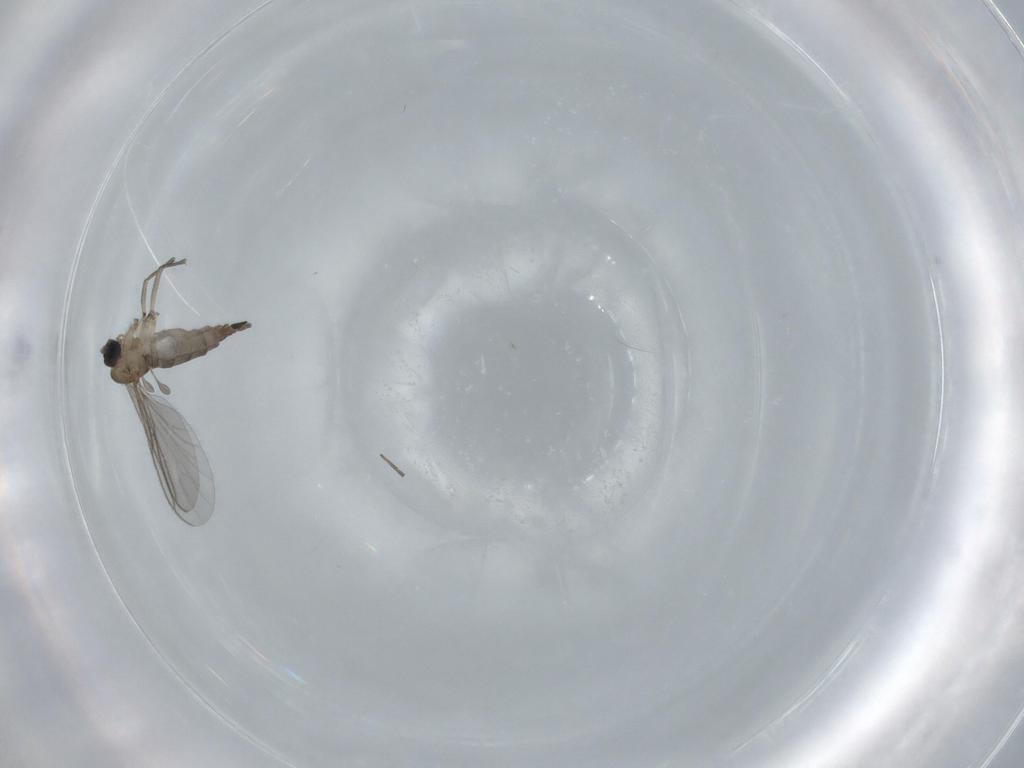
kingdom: Animalia
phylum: Arthropoda
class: Insecta
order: Diptera
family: Sciaridae
